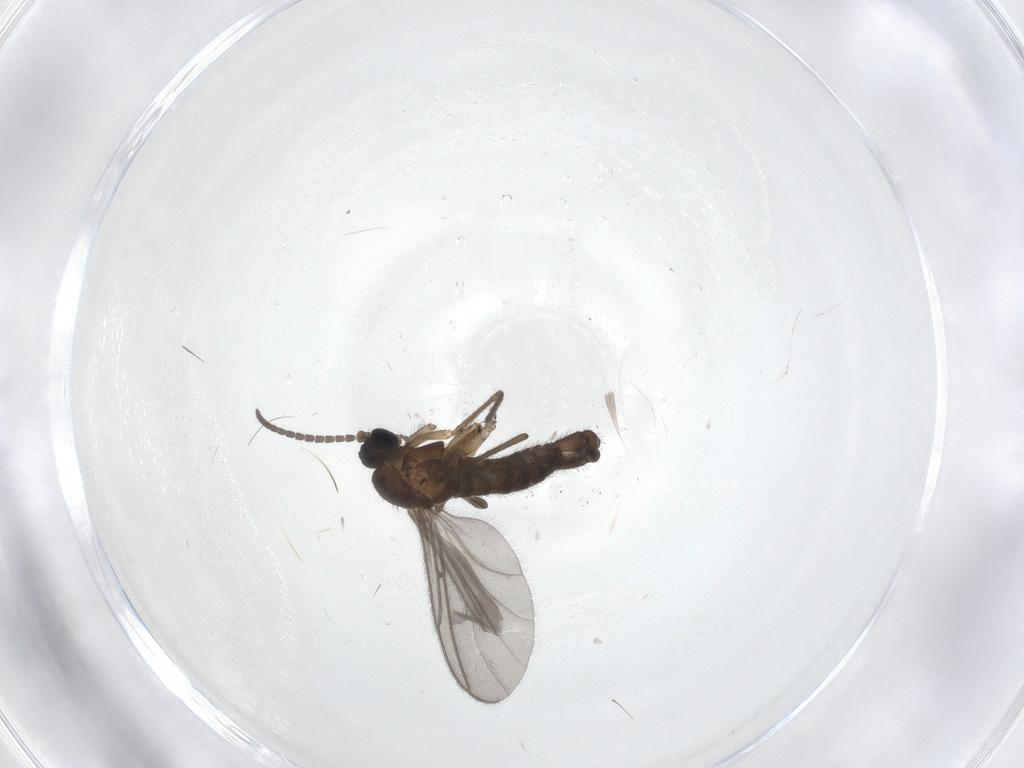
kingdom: Animalia
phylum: Arthropoda
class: Insecta
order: Diptera
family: Sciaridae
